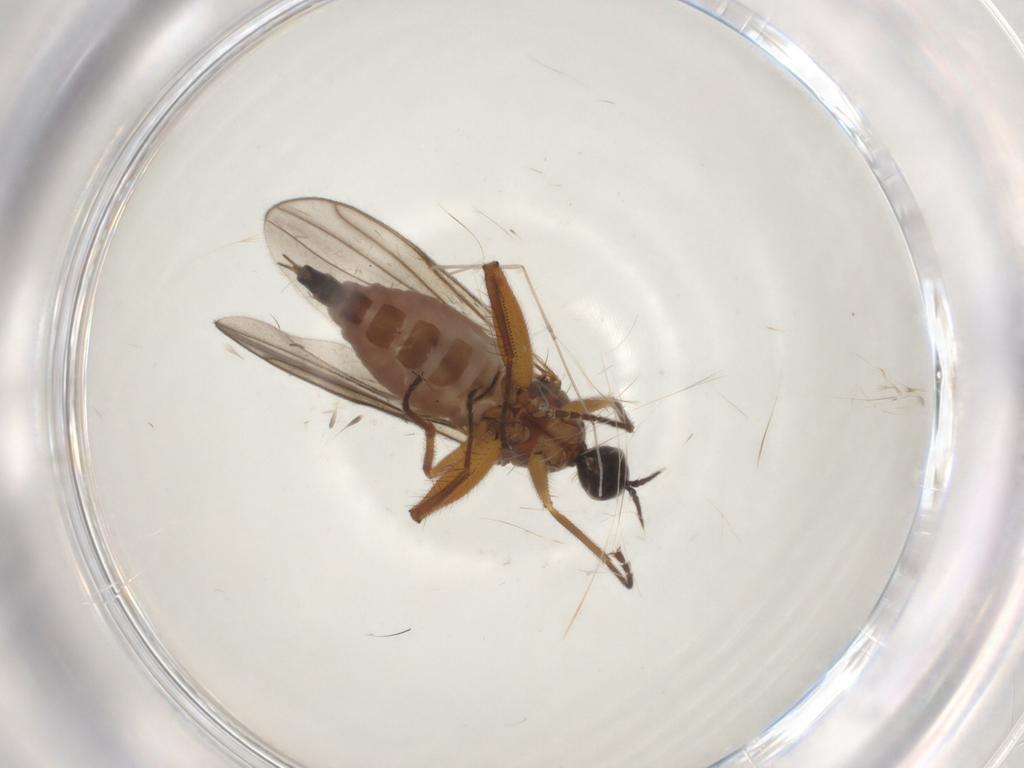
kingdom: Animalia
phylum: Arthropoda
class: Insecta
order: Diptera
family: Hybotidae
